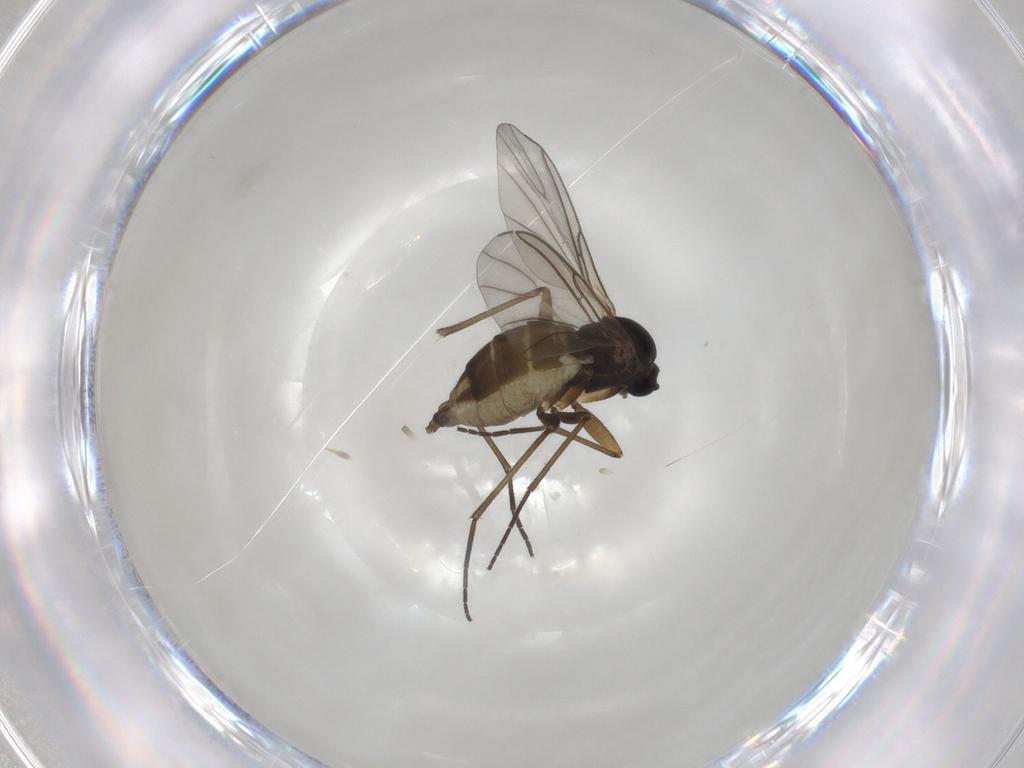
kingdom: Animalia
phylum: Arthropoda
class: Insecta
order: Diptera
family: Sciaridae
